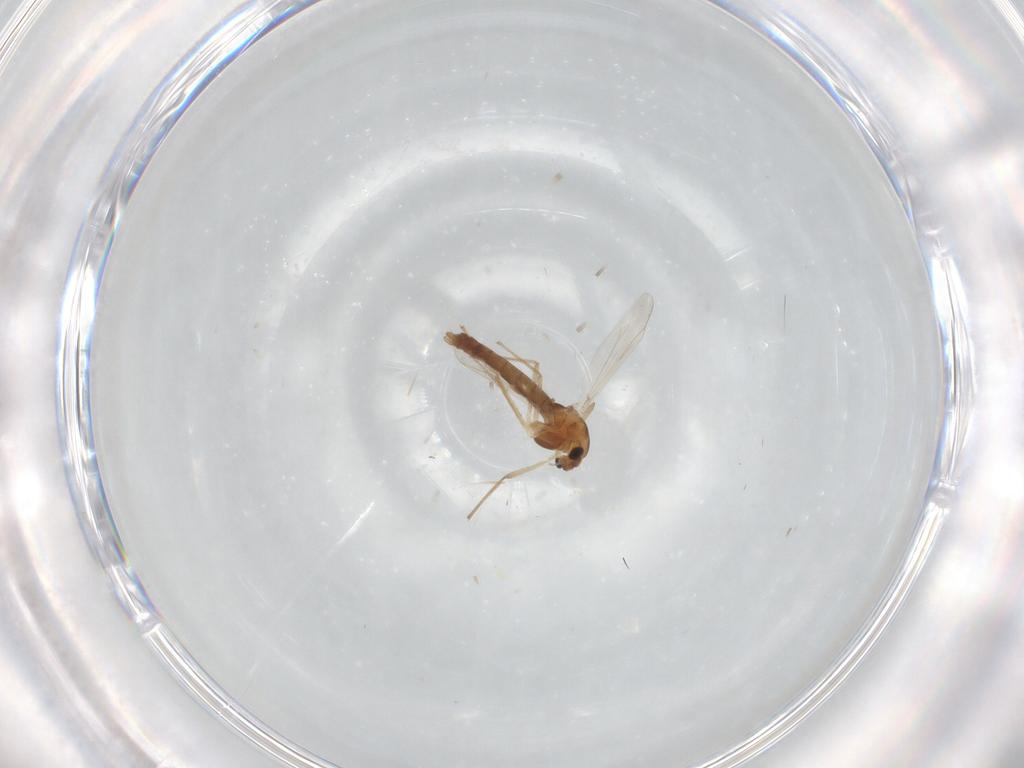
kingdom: Animalia
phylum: Arthropoda
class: Insecta
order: Diptera
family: Chironomidae
